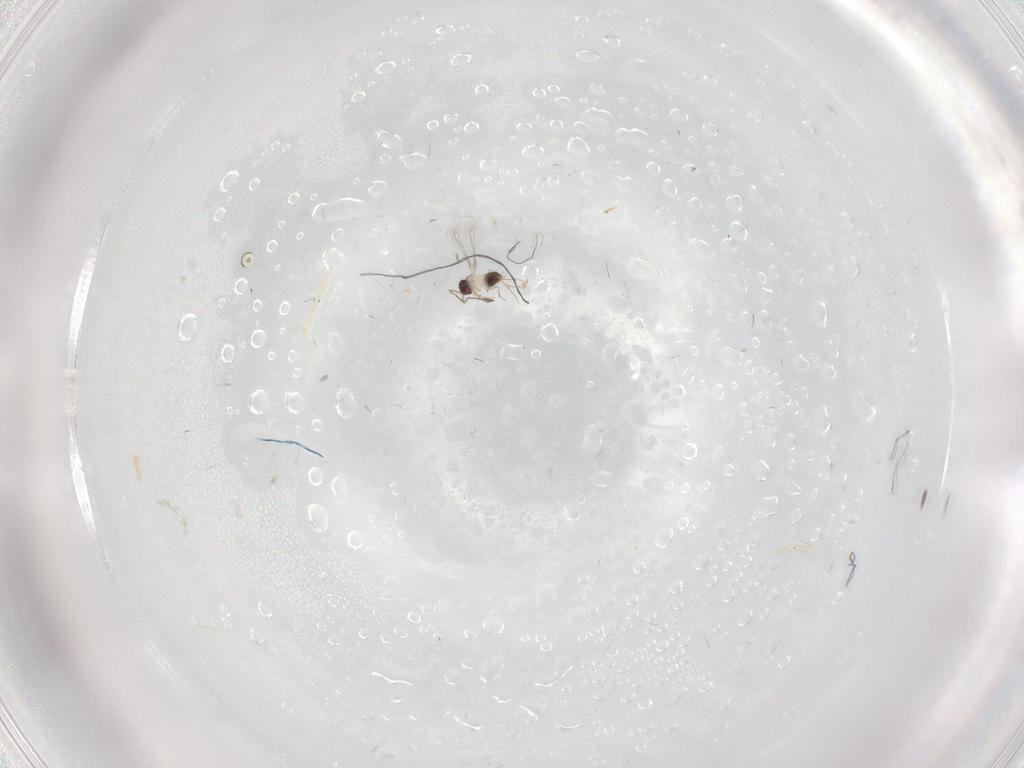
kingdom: Animalia
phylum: Arthropoda
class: Insecta
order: Hymenoptera
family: Mymaridae
